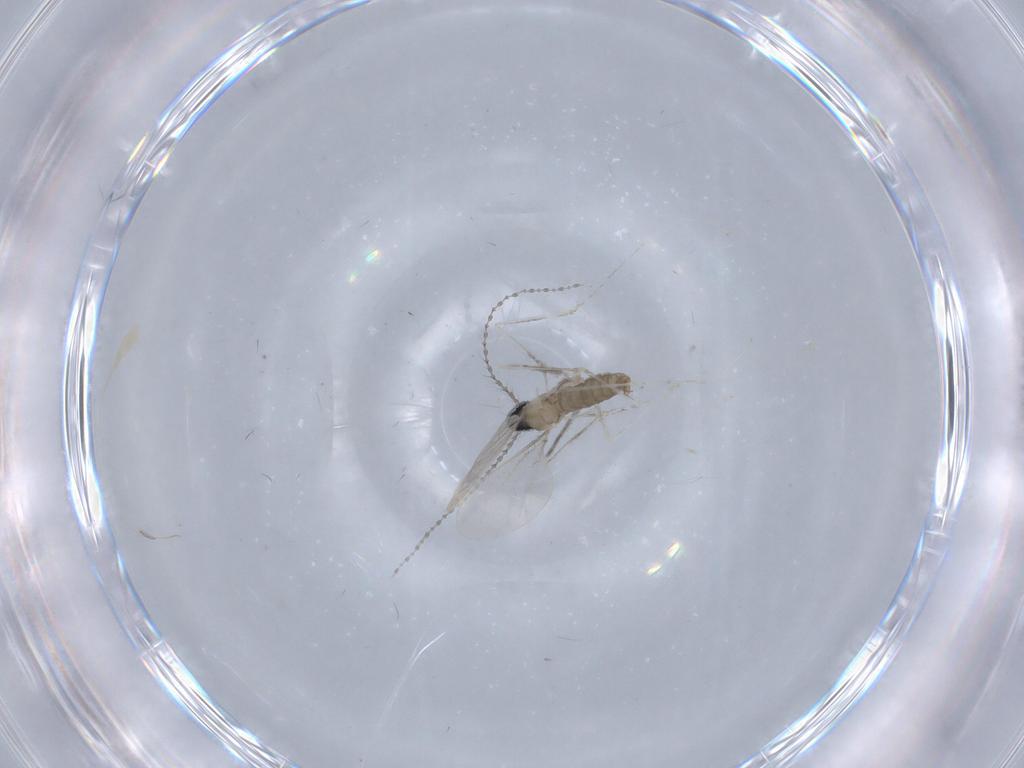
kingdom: Animalia
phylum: Arthropoda
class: Insecta
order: Diptera
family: Cecidomyiidae
